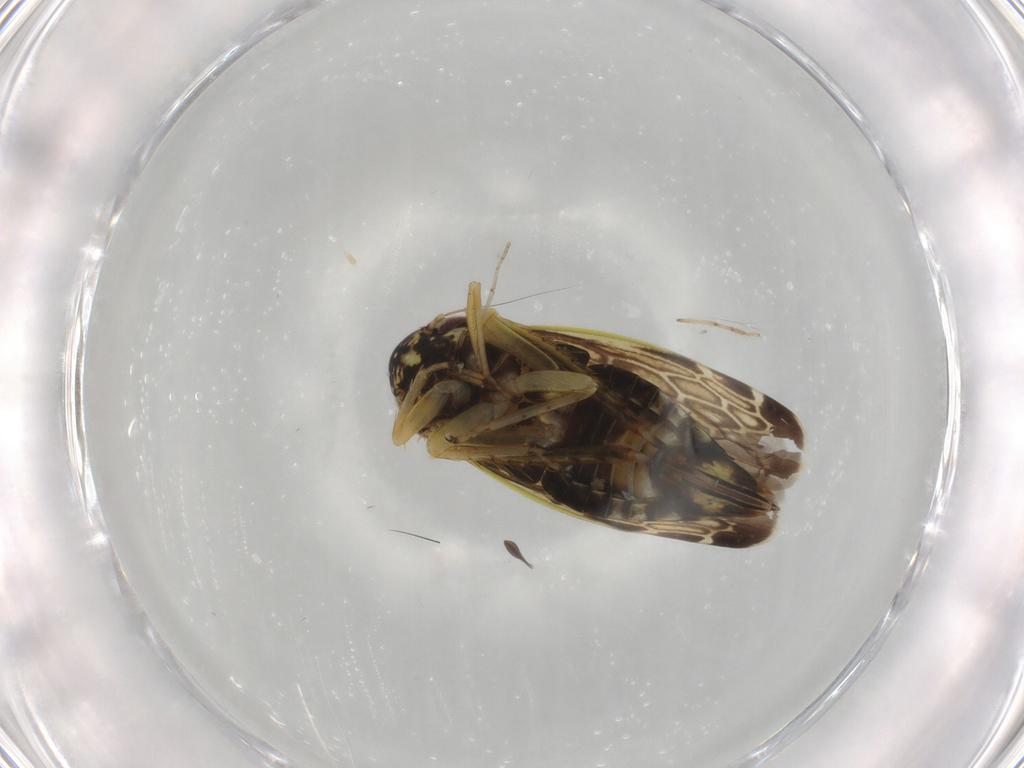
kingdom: Animalia
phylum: Arthropoda
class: Insecta
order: Hemiptera
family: Cicadellidae
